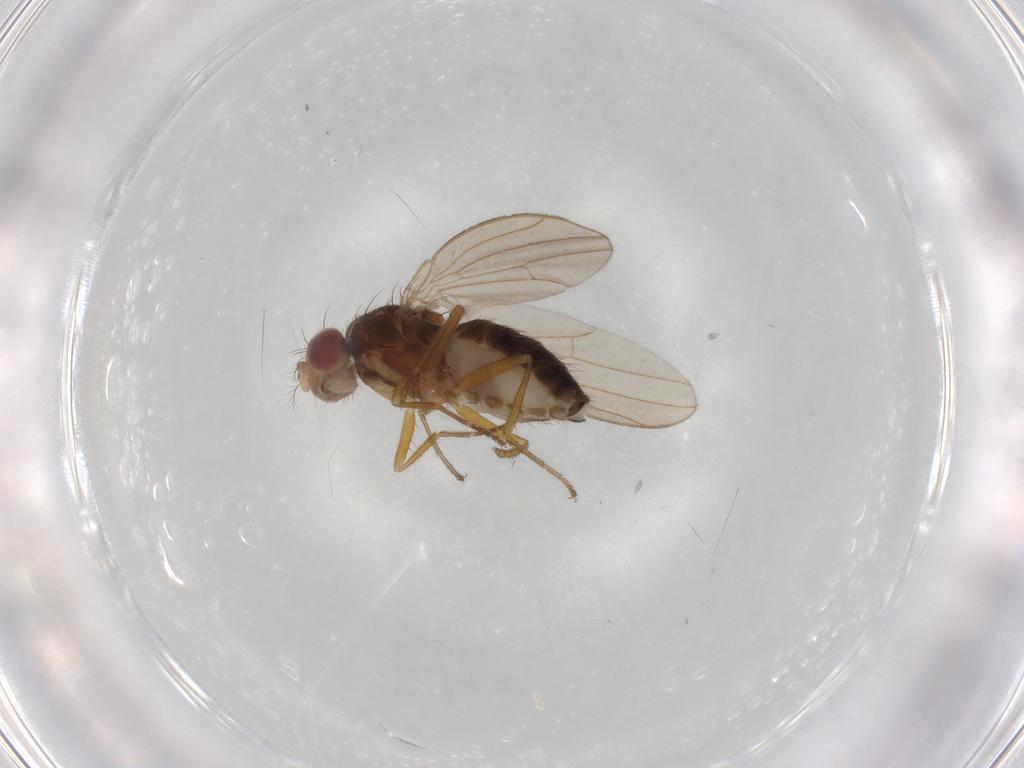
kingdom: Animalia
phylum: Arthropoda
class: Insecta
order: Diptera
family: Drosophilidae
